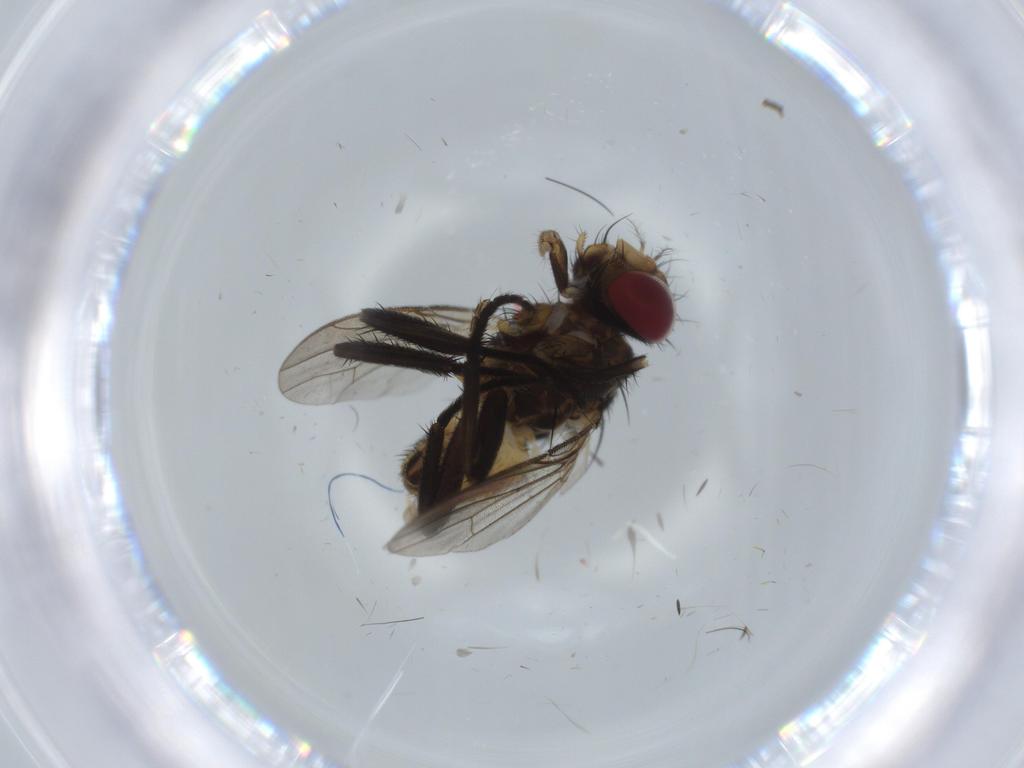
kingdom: Animalia
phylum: Arthropoda
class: Insecta
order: Diptera
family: Anthomyiidae
